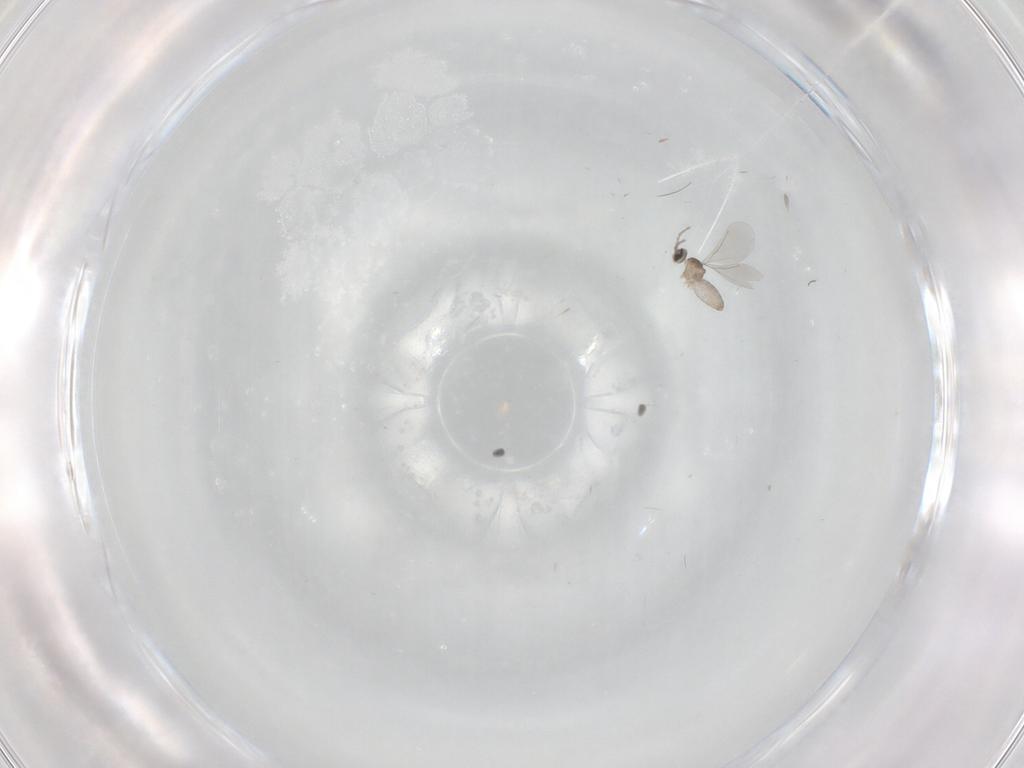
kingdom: Animalia
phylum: Arthropoda
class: Insecta
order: Diptera
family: Cecidomyiidae
